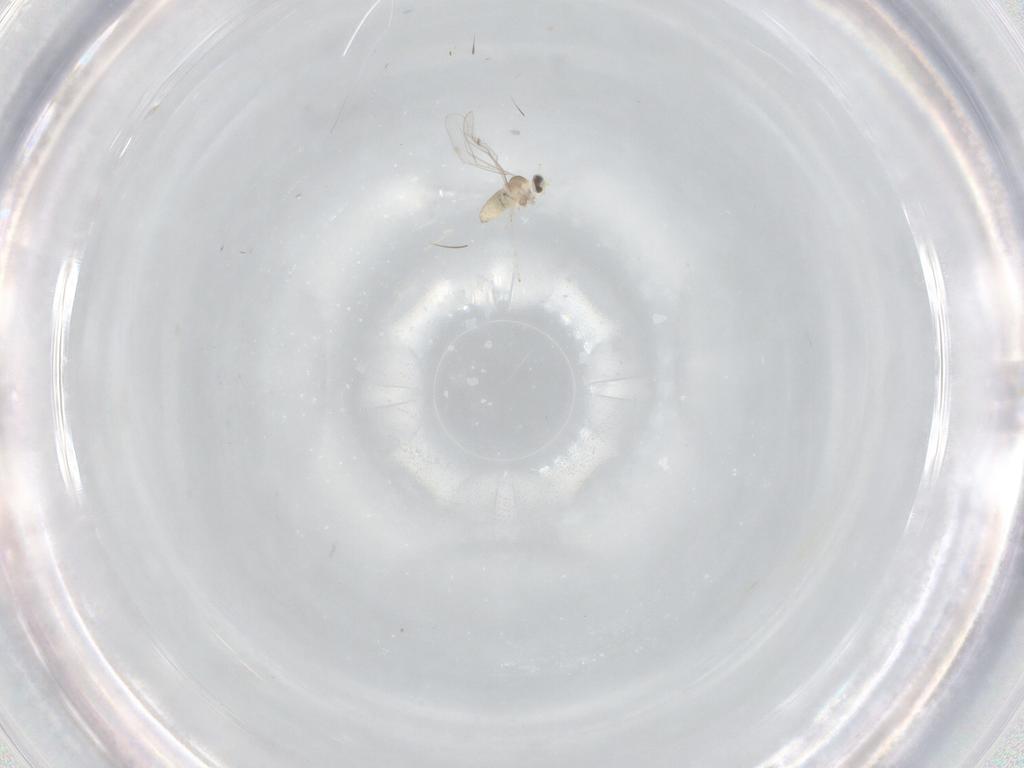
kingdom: Animalia
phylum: Arthropoda
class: Insecta
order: Diptera
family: Cecidomyiidae
